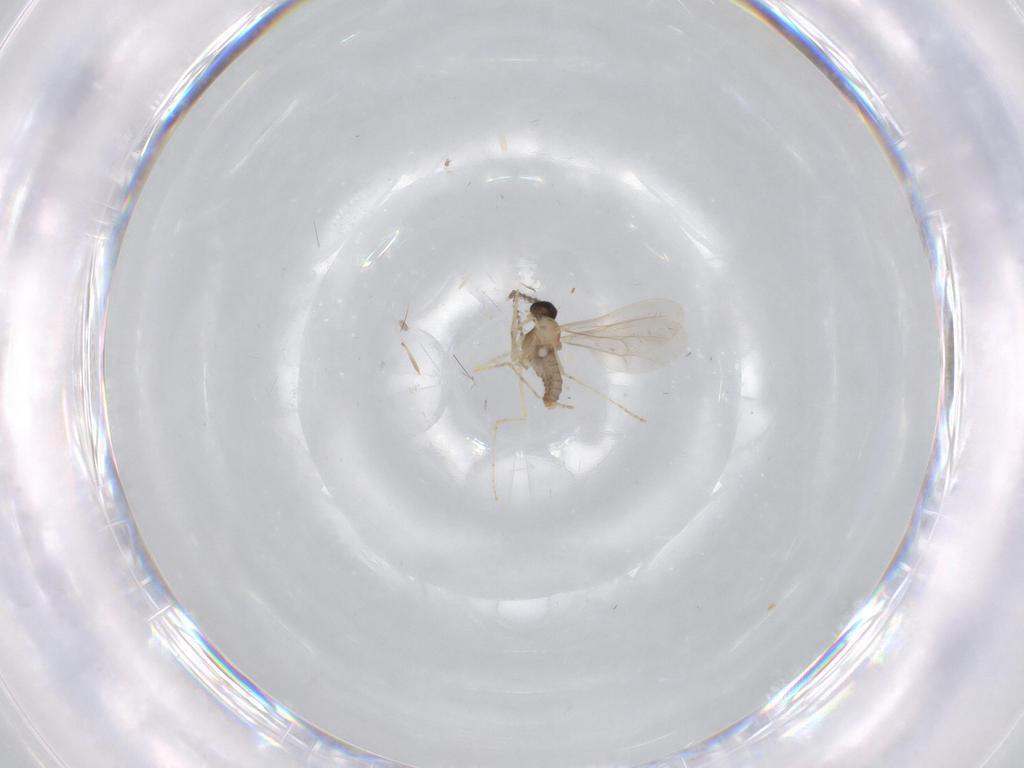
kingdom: Animalia
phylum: Arthropoda
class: Insecta
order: Diptera
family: Cecidomyiidae
